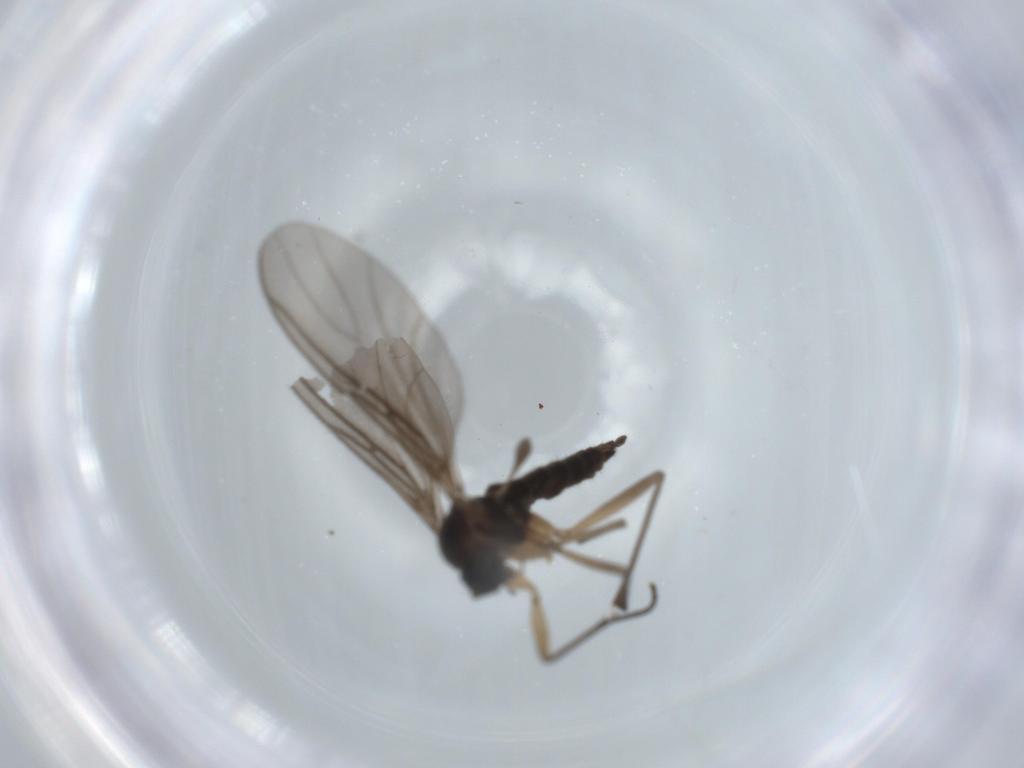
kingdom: Animalia
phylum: Arthropoda
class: Insecta
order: Diptera
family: Sciaridae
